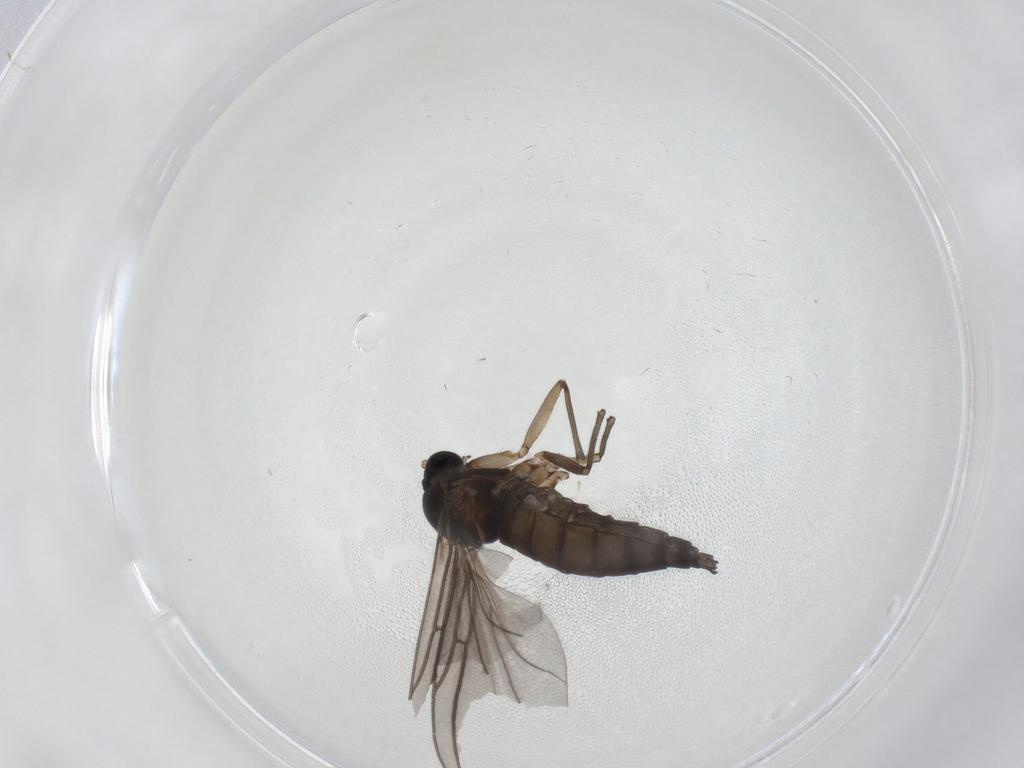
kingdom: Animalia
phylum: Arthropoda
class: Insecta
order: Diptera
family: Sciaridae
